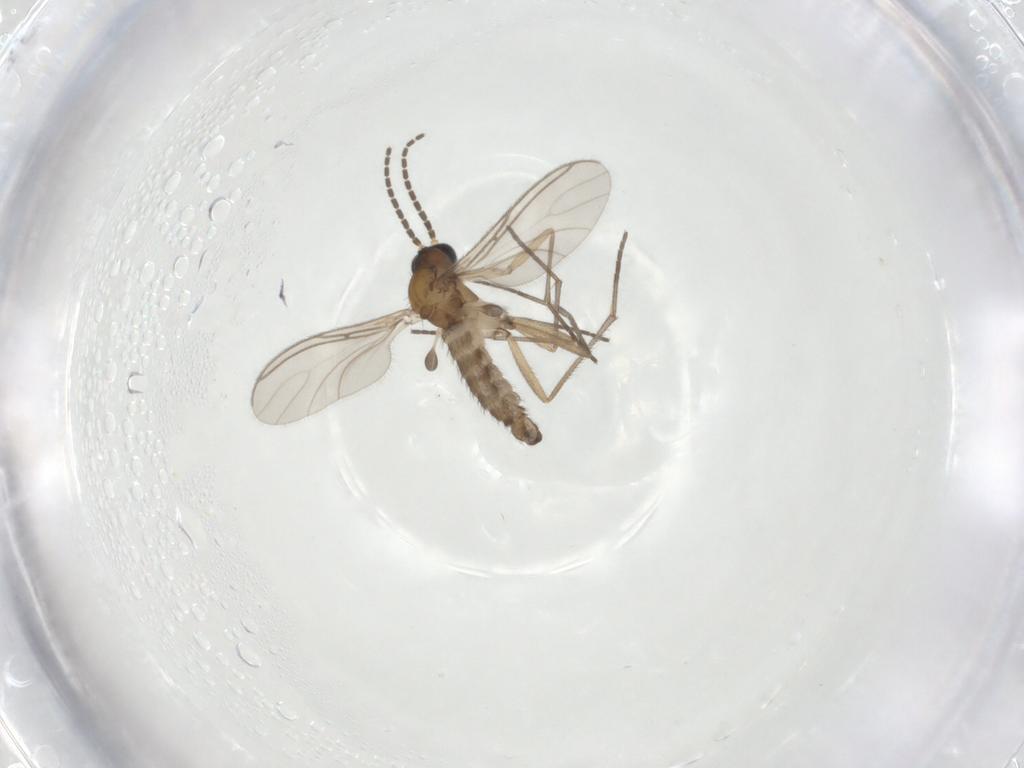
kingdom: Animalia
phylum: Arthropoda
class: Insecta
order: Diptera
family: Sciaridae
